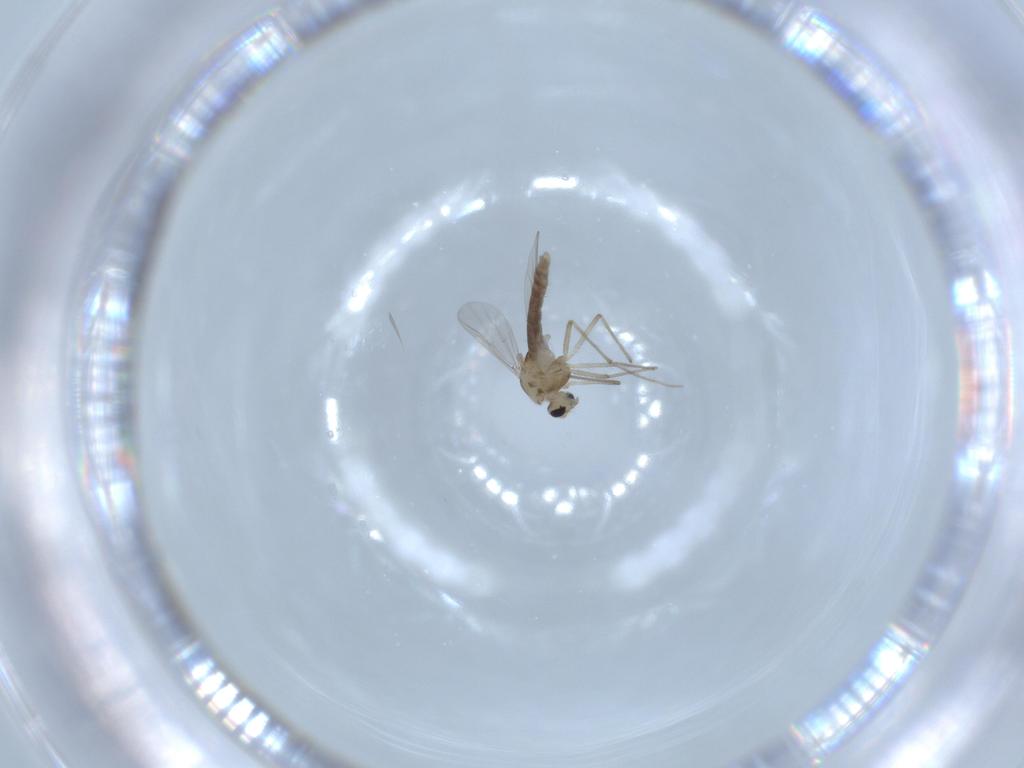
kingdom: Animalia
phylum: Arthropoda
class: Insecta
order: Diptera
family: Chironomidae
